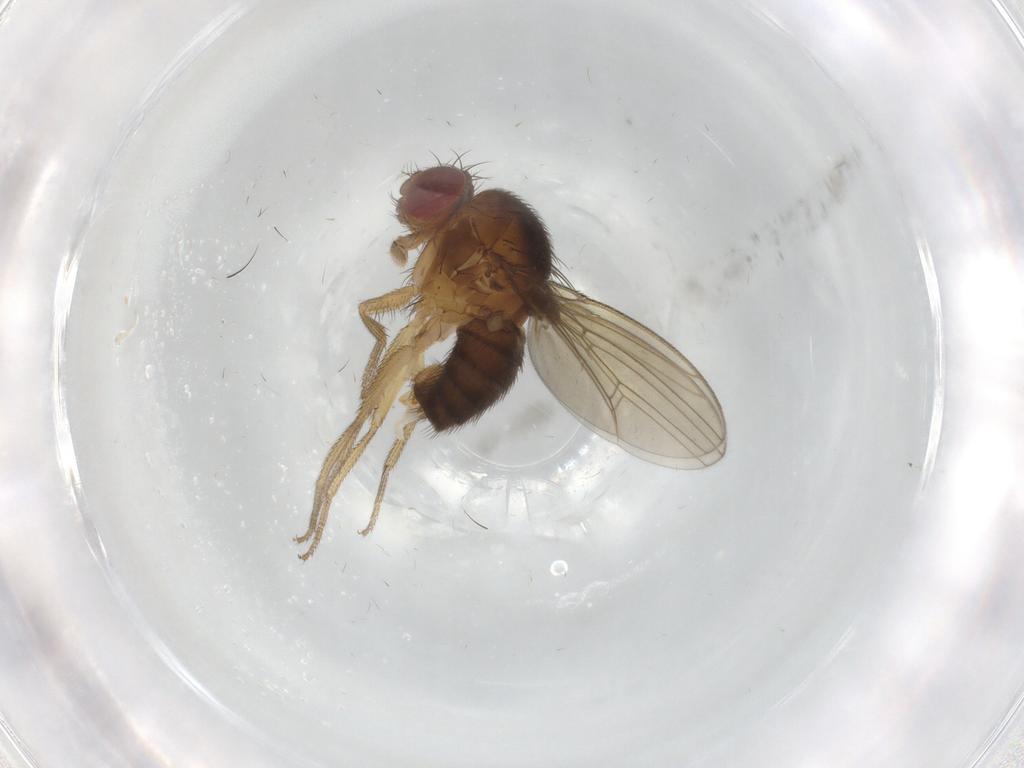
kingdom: Animalia
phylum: Arthropoda
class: Insecta
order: Diptera
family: Drosophilidae
